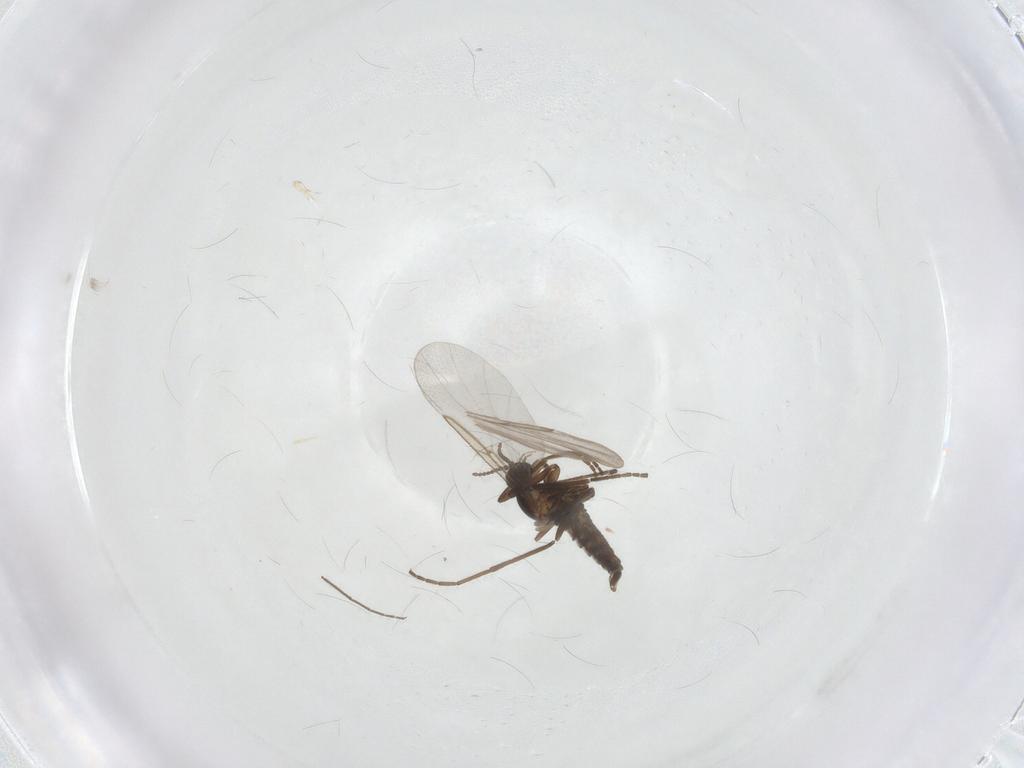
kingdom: Animalia
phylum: Arthropoda
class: Insecta
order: Diptera
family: Cecidomyiidae
